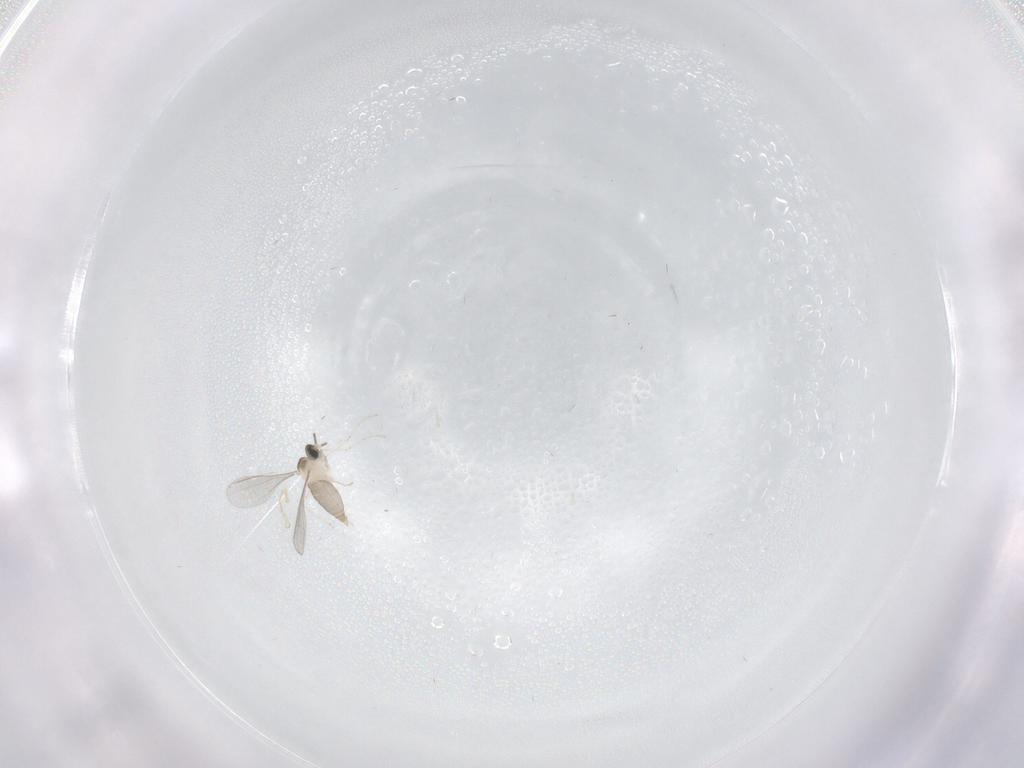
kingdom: Animalia
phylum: Arthropoda
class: Insecta
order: Diptera
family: Cecidomyiidae
